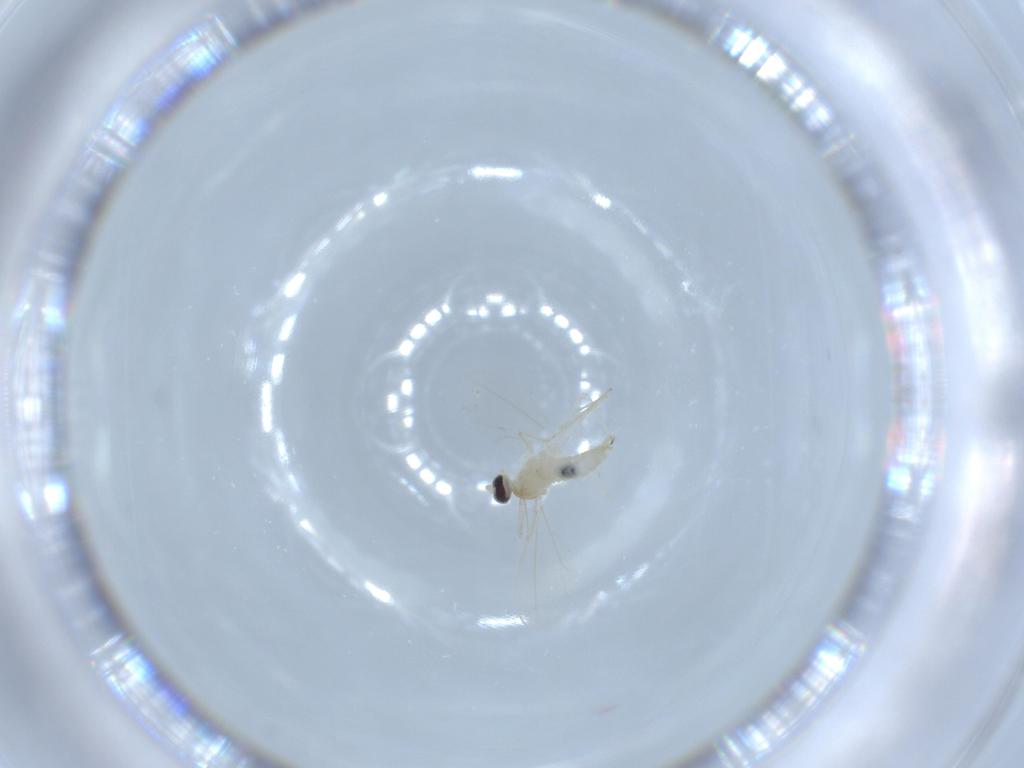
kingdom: Animalia
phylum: Arthropoda
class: Insecta
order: Diptera
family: Cecidomyiidae
